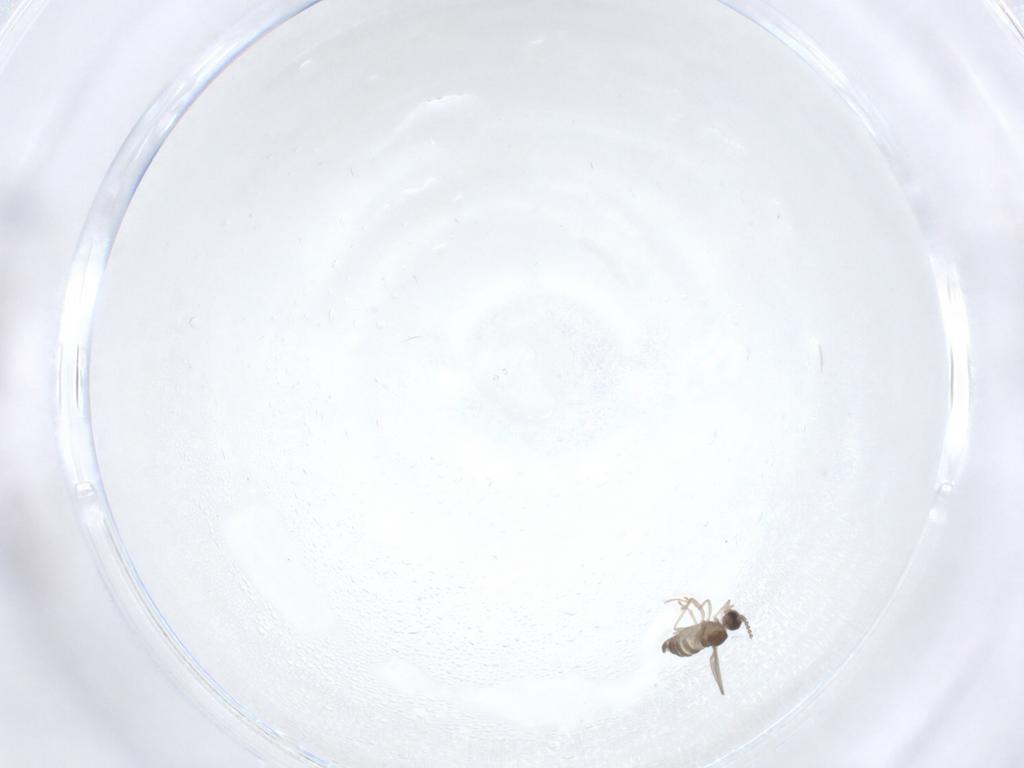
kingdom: Animalia
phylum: Arthropoda
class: Insecta
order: Diptera
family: Cecidomyiidae
